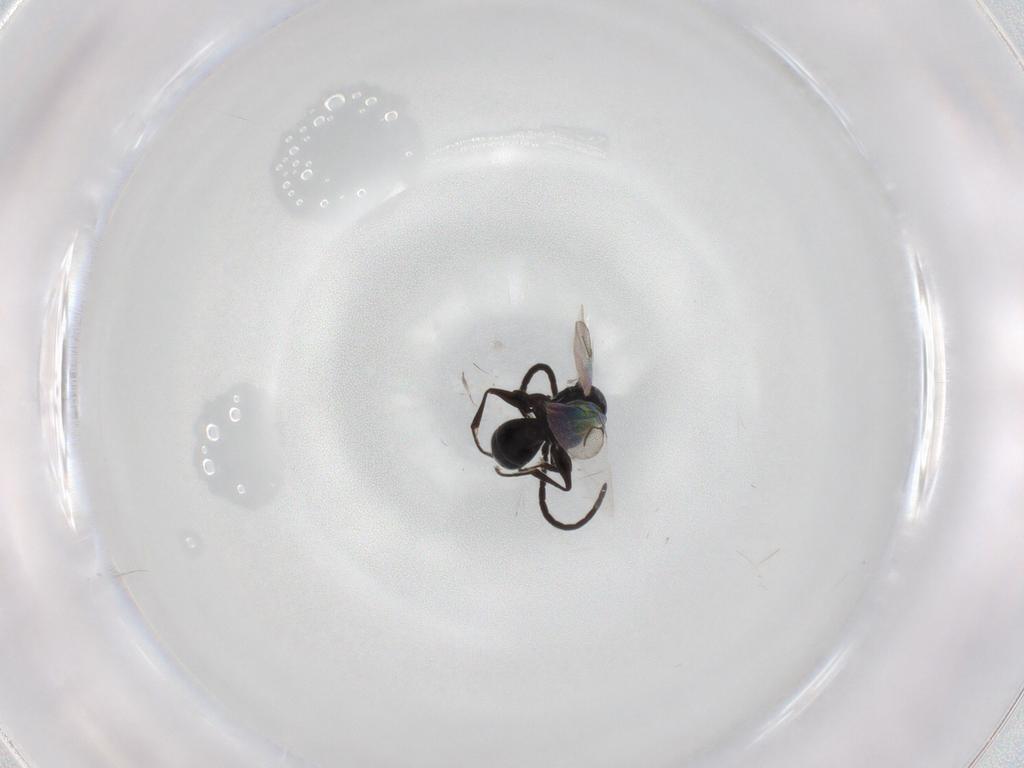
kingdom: Animalia
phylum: Arthropoda
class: Insecta
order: Hymenoptera
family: Bethylidae
